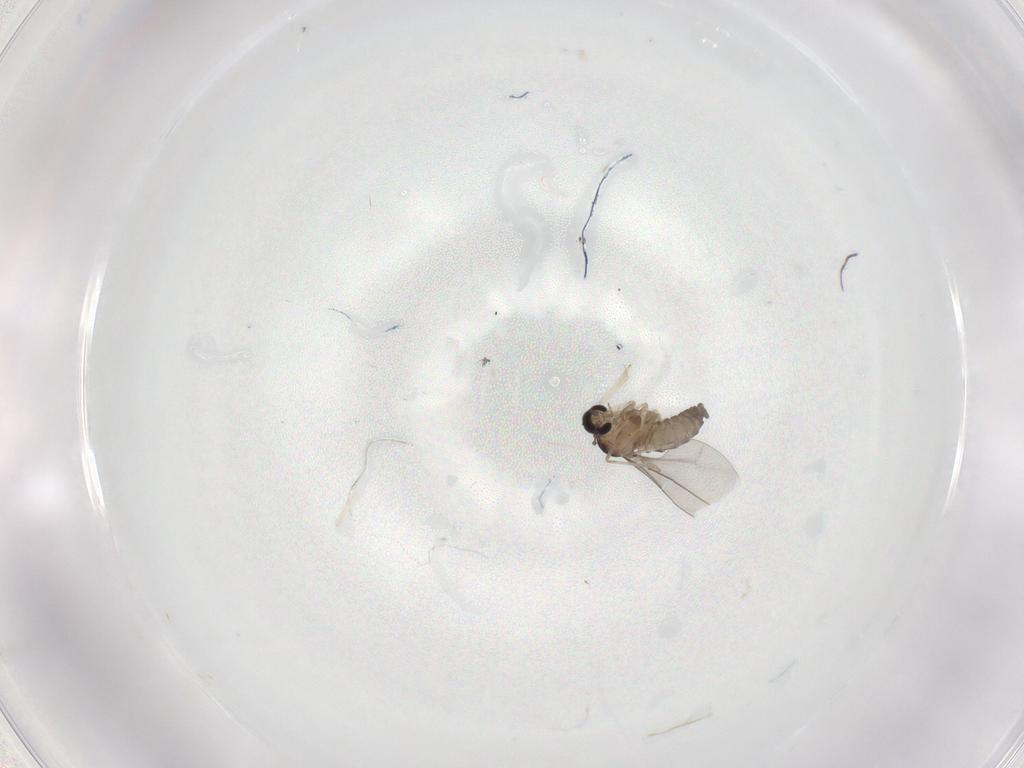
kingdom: Animalia
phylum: Arthropoda
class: Insecta
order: Diptera
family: Cecidomyiidae
